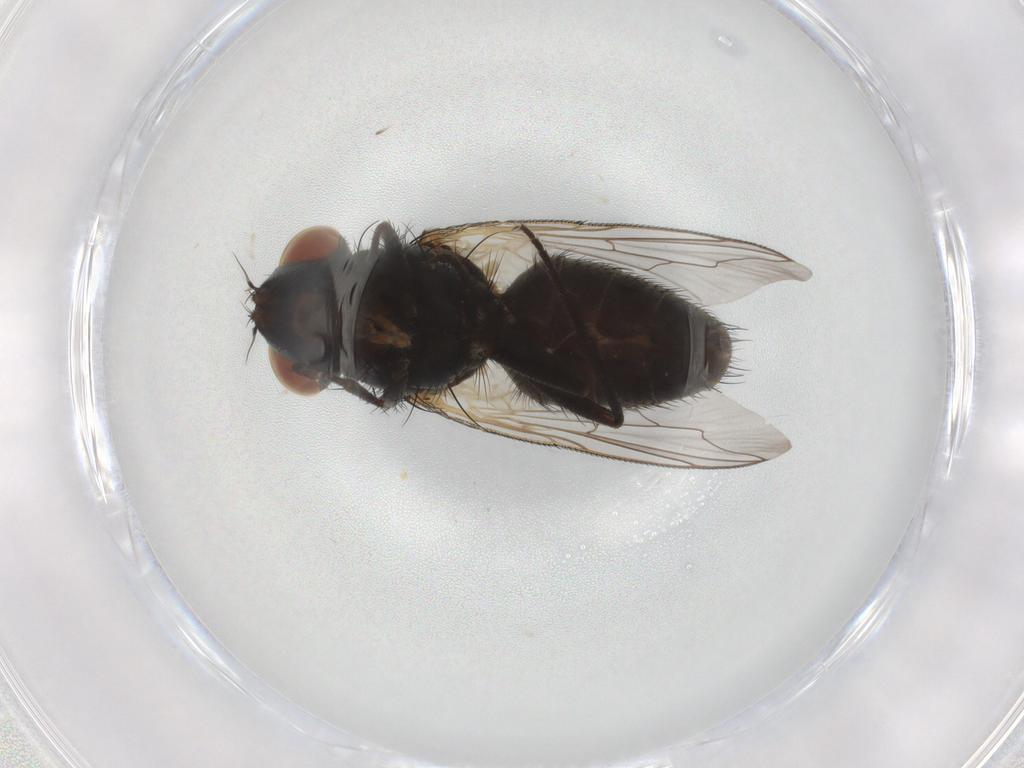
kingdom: Animalia
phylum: Arthropoda
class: Insecta
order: Diptera
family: Sarcophagidae
